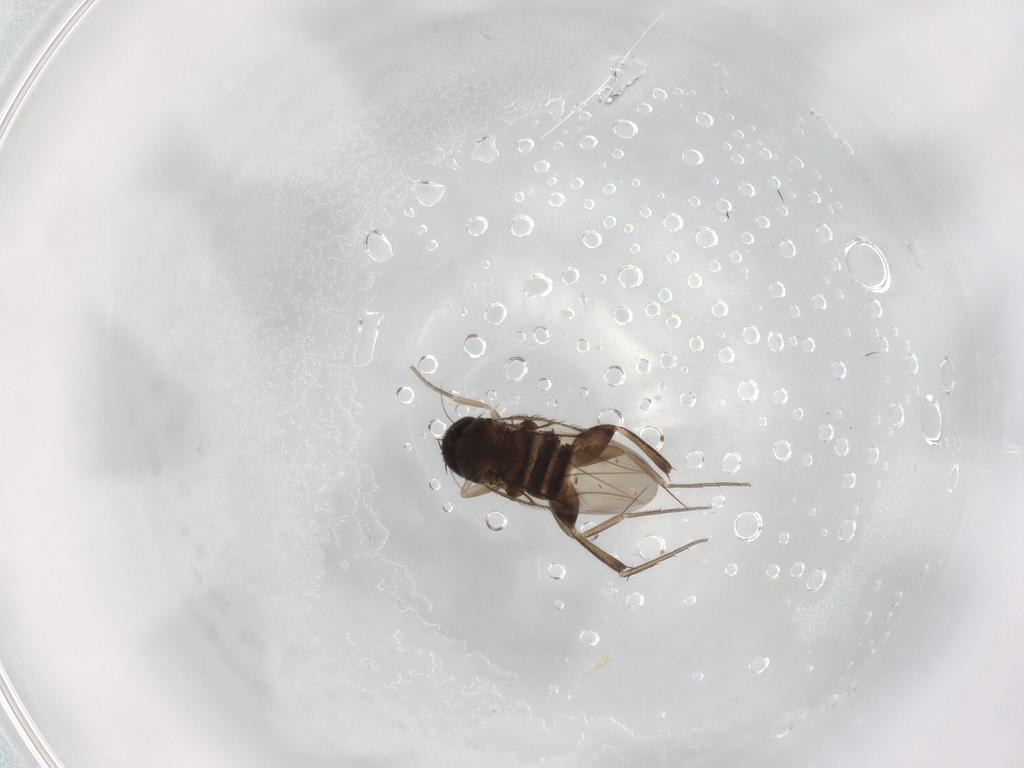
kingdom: Animalia
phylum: Arthropoda
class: Insecta
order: Diptera
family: Phoridae
